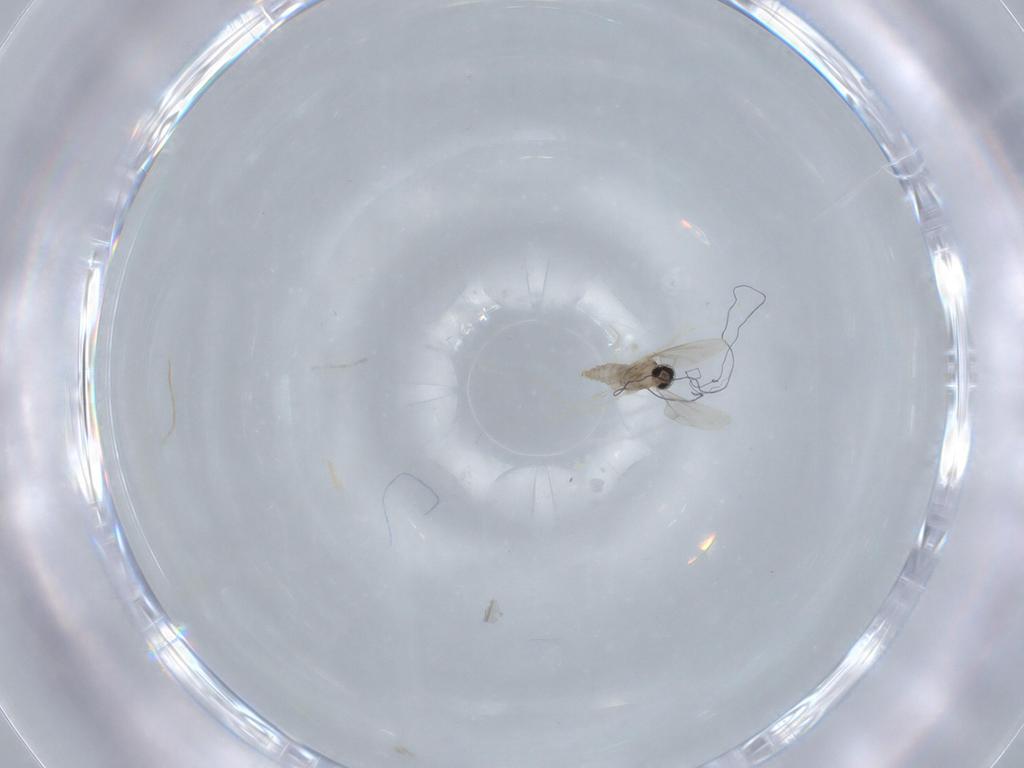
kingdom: Animalia
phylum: Arthropoda
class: Insecta
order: Diptera
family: Cecidomyiidae
